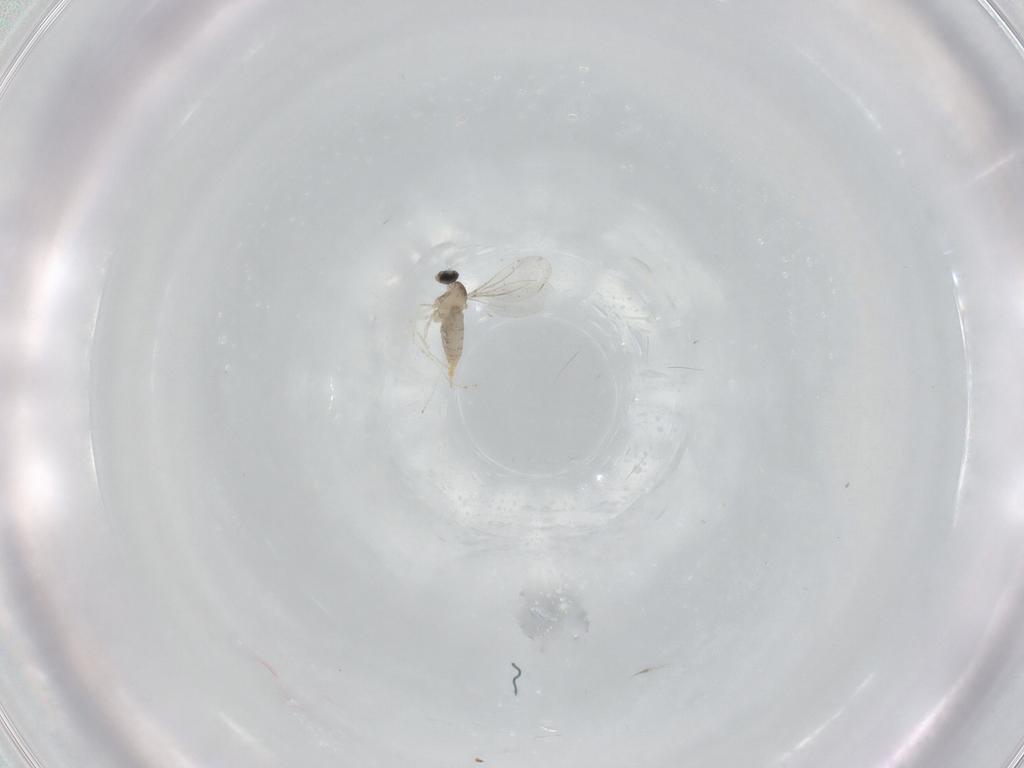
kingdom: Animalia
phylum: Arthropoda
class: Insecta
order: Diptera
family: Cecidomyiidae
